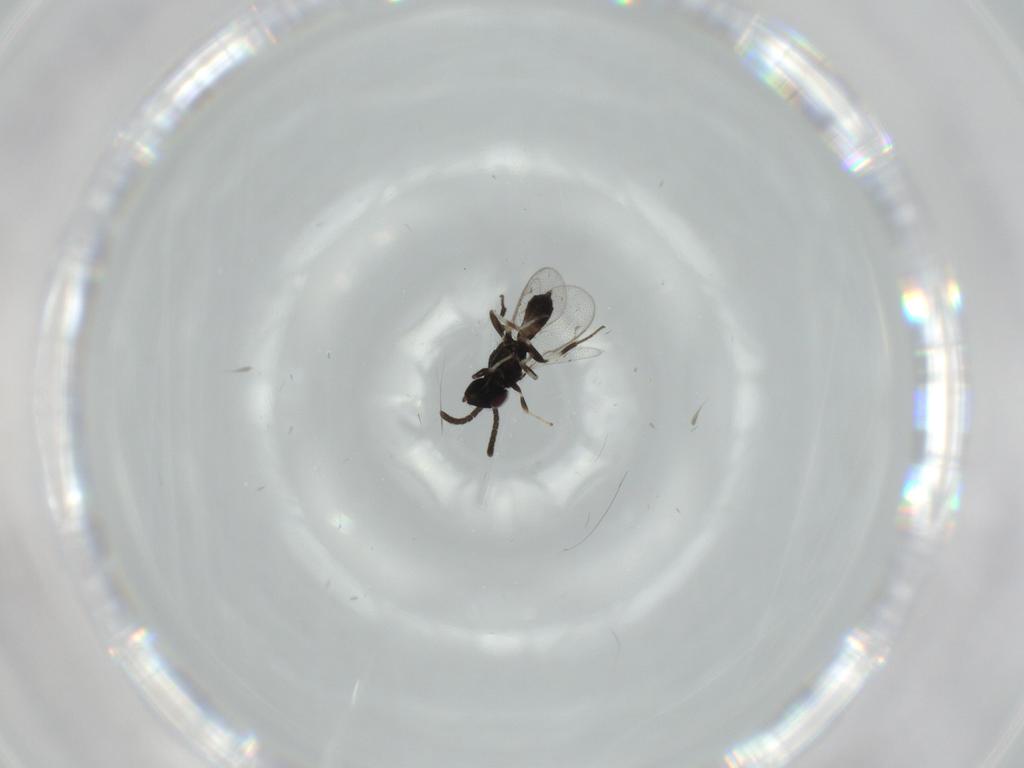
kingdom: Animalia
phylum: Arthropoda
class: Insecta
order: Hymenoptera
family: Eupelmidae
